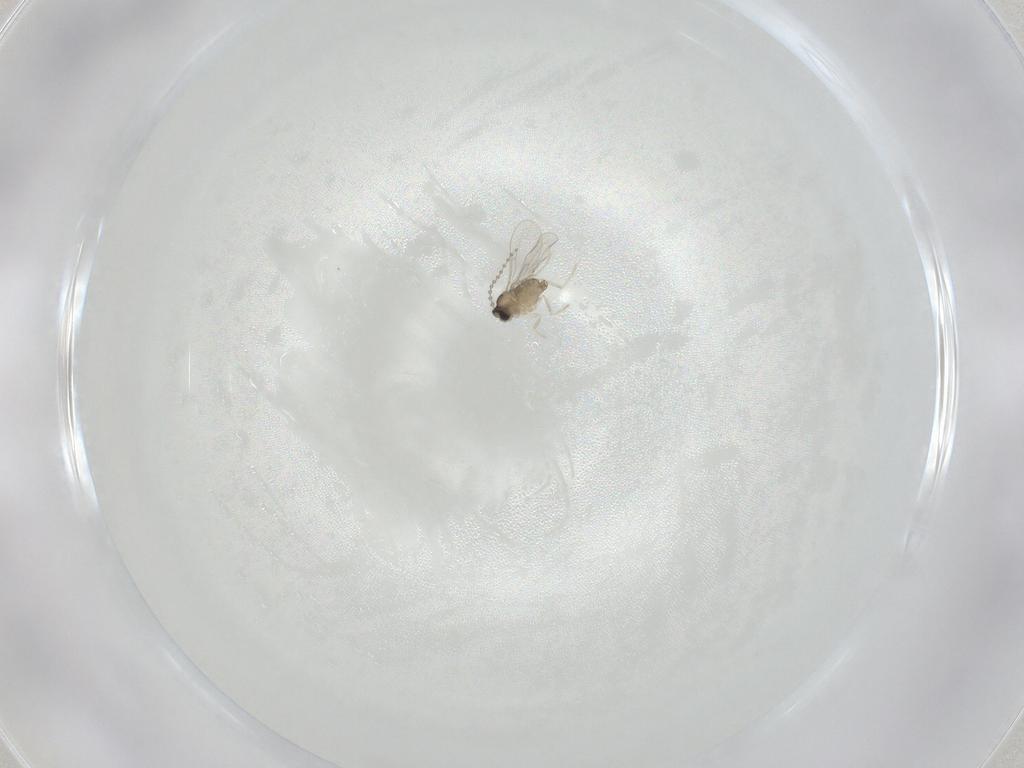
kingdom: Animalia
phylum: Arthropoda
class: Insecta
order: Diptera
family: Cecidomyiidae
